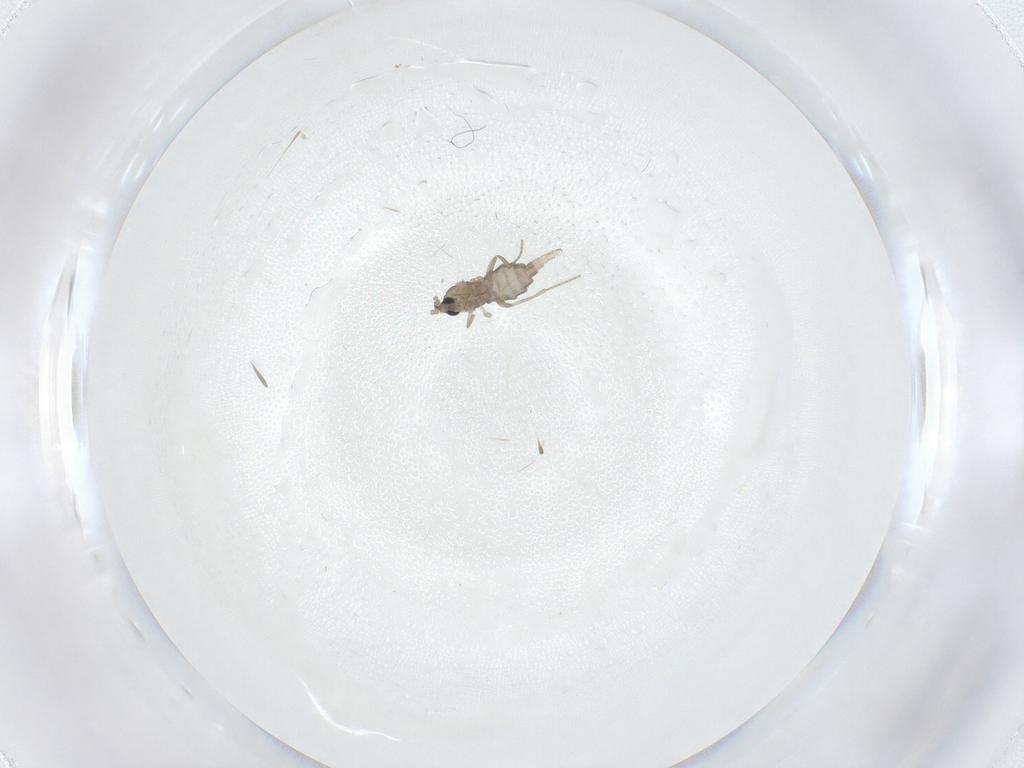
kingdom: Animalia
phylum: Arthropoda
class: Insecta
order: Diptera
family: Cecidomyiidae
